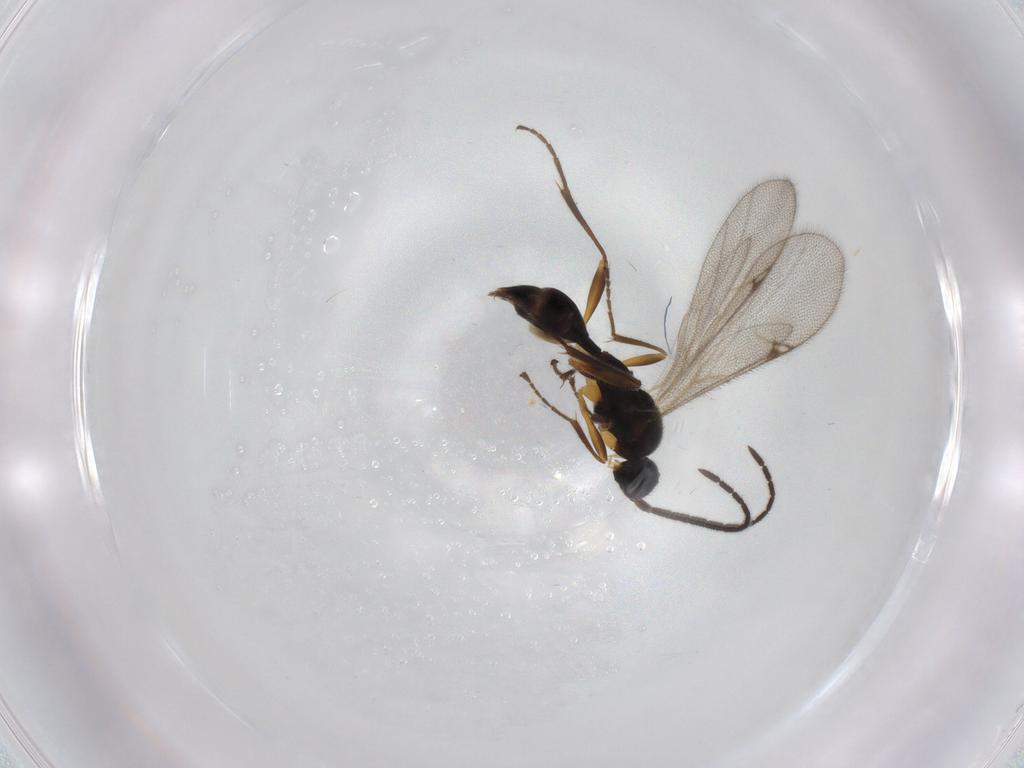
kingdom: Animalia
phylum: Arthropoda
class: Insecta
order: Hymenoptera
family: Proctotrupidae
